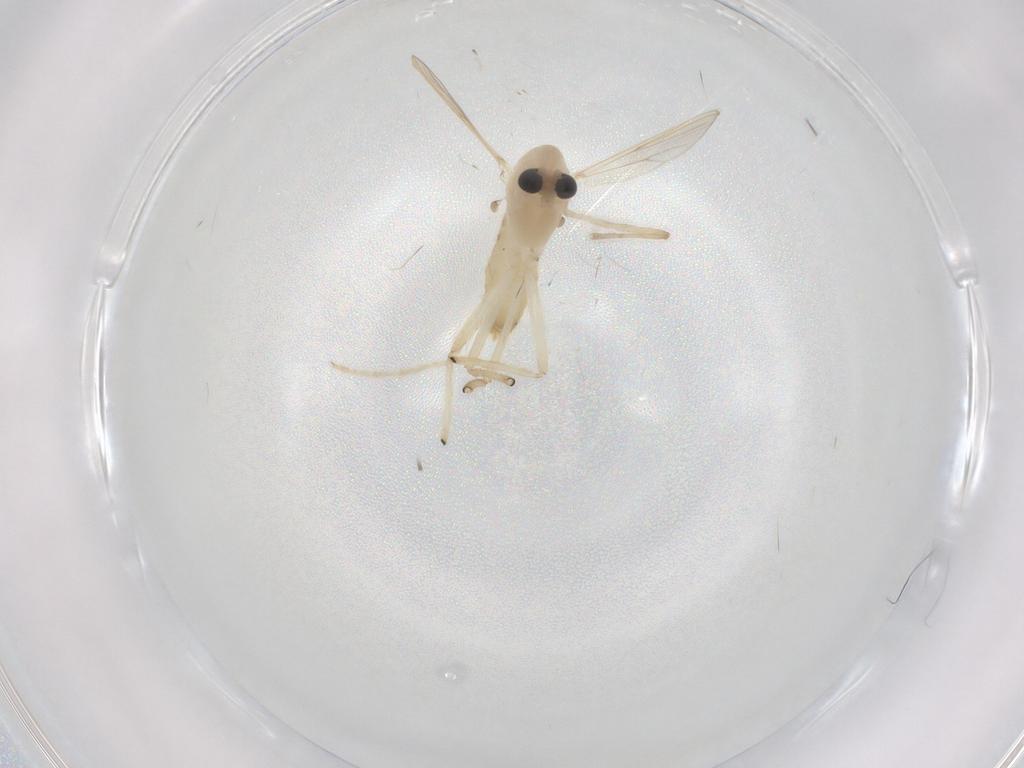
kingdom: Animalia
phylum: Arthropoda
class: Insecta
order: Diptera
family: Chironomidae
